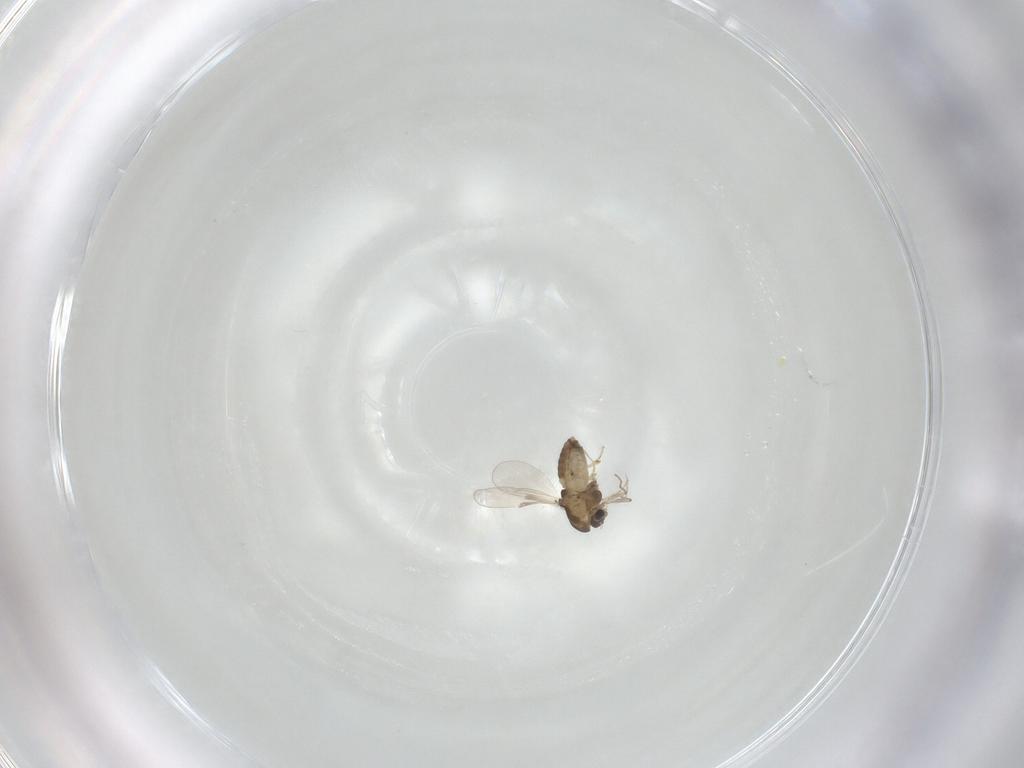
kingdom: Animalia
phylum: Arthropoda
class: Insecta
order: Diptera
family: Chironomidae
